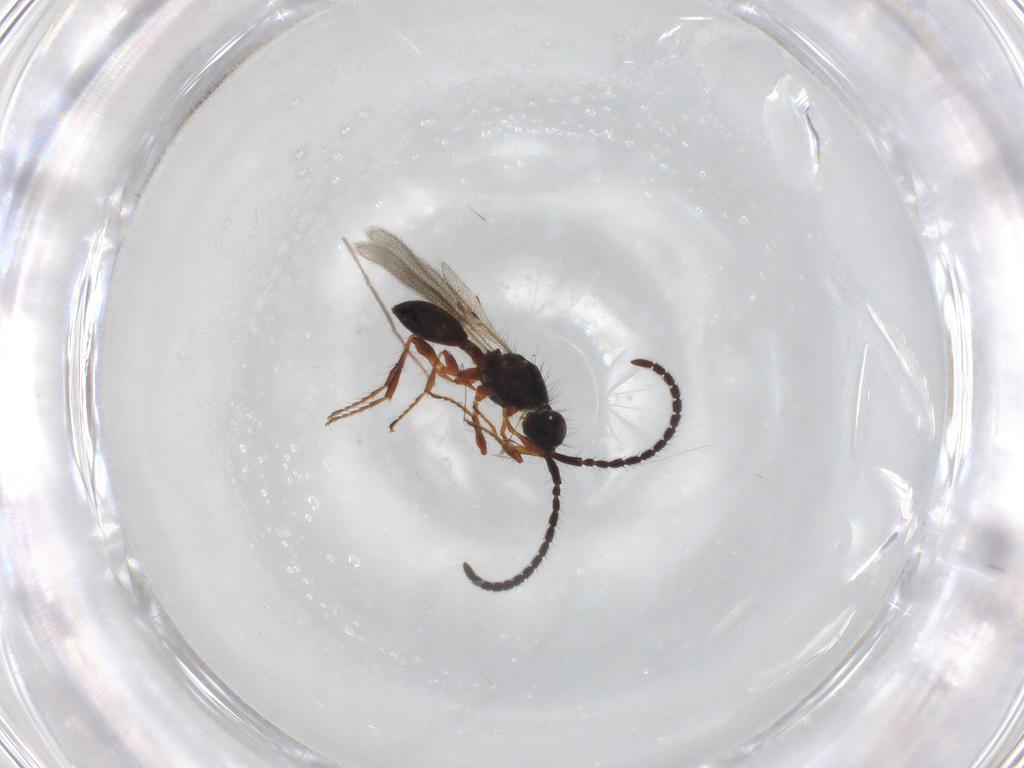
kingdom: Animalia
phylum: Arthropoda
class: Insecta
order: Hymenoptera
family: Diapriidae
